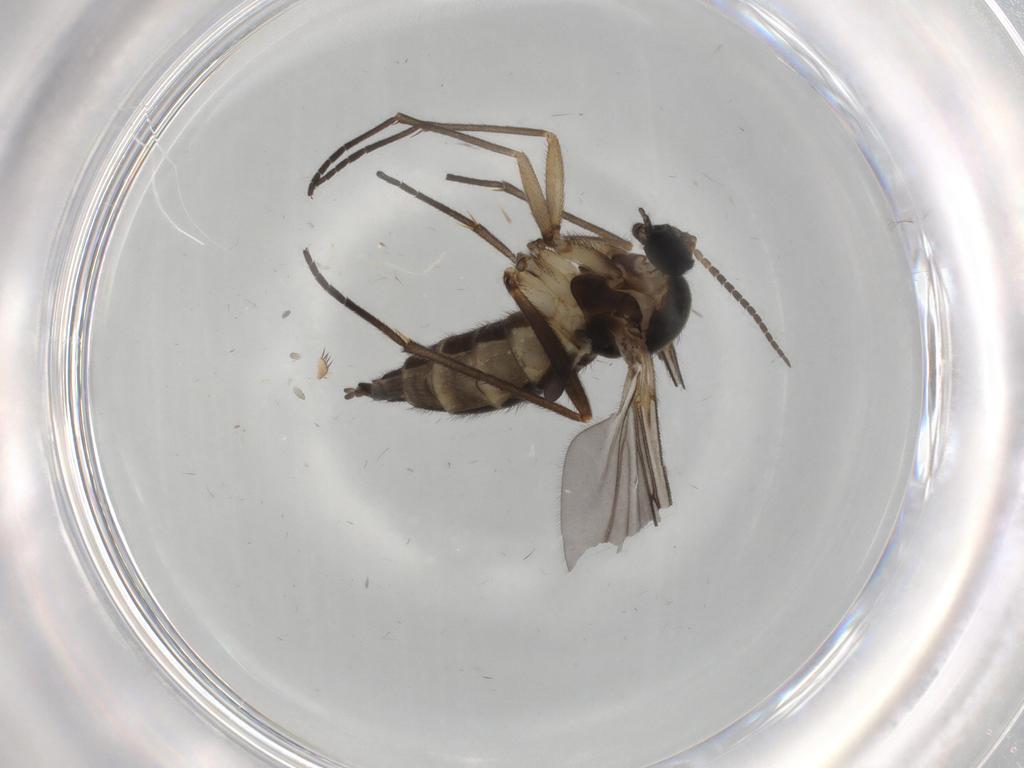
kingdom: Animalia
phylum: Arthropoda
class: Insecta
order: Diptera
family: Sciaridae
